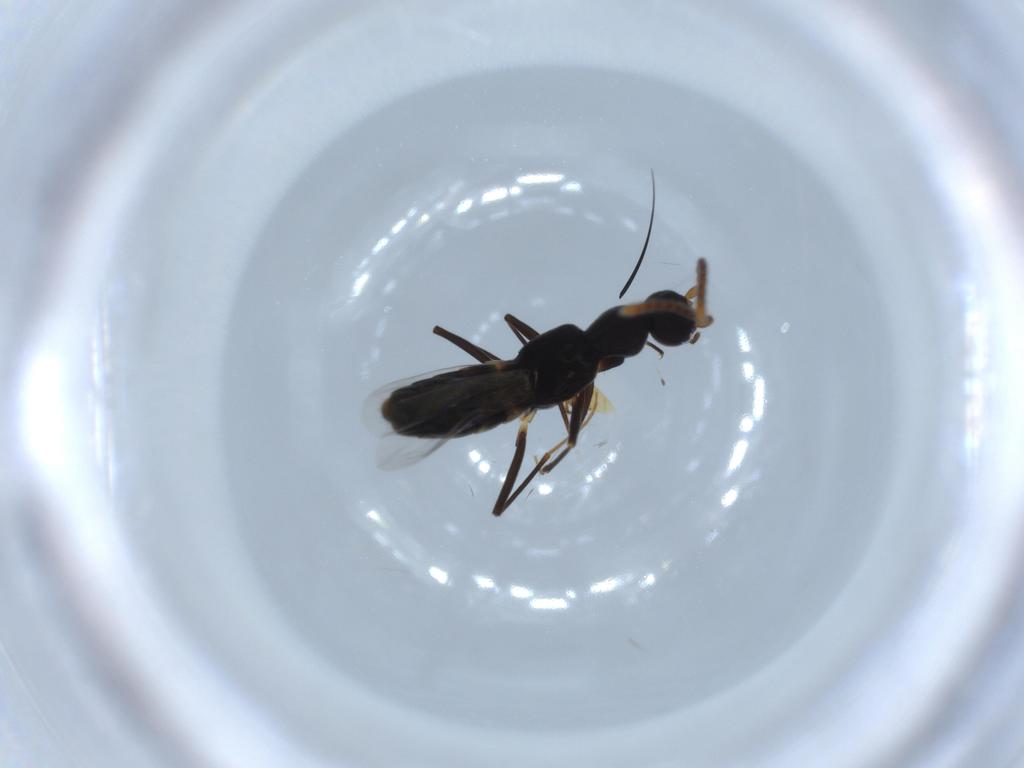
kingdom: Animalia
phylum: Arthropoda
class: Insecta
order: Coleoptera
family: Staphylinidae
